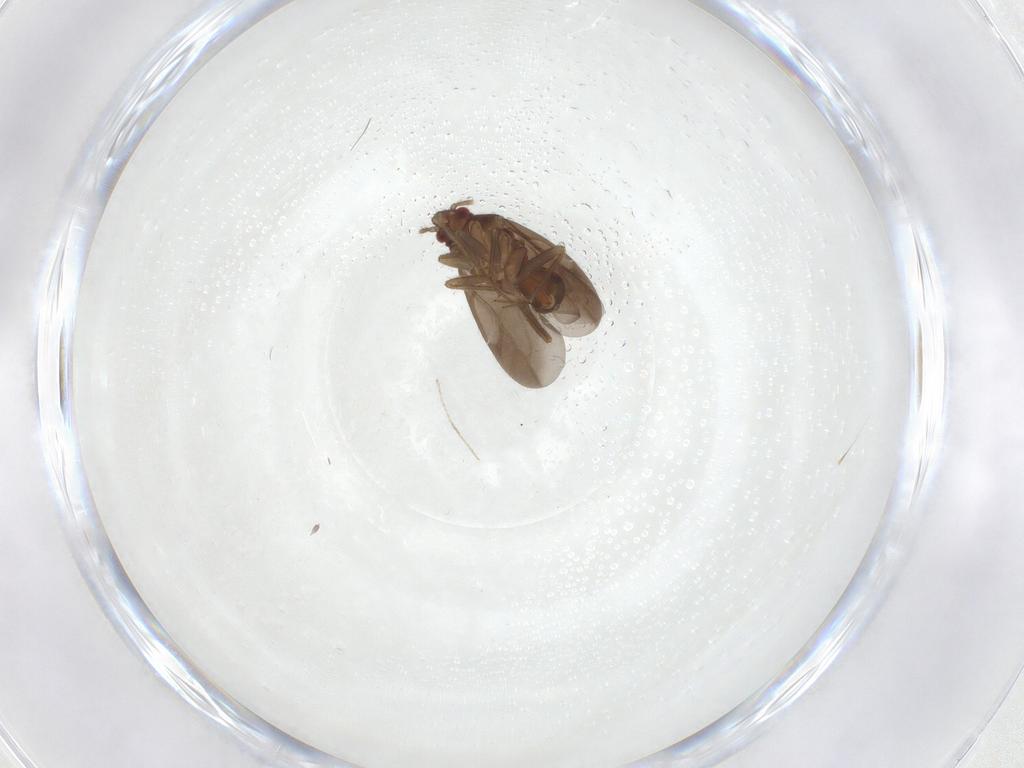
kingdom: Animalia
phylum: Arthropoda
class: Insecta
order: Hemiptera
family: Ceratocombidae
